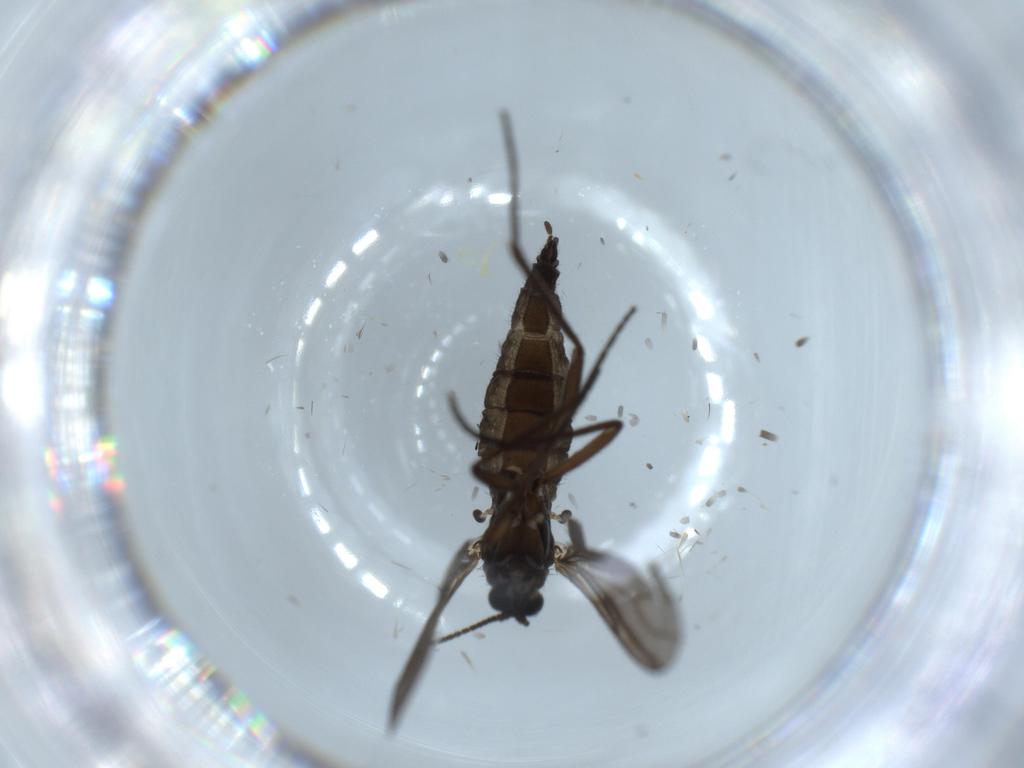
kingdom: Animalia
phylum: Arthropoda
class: Insecta
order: Diptera
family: Sciaridae
